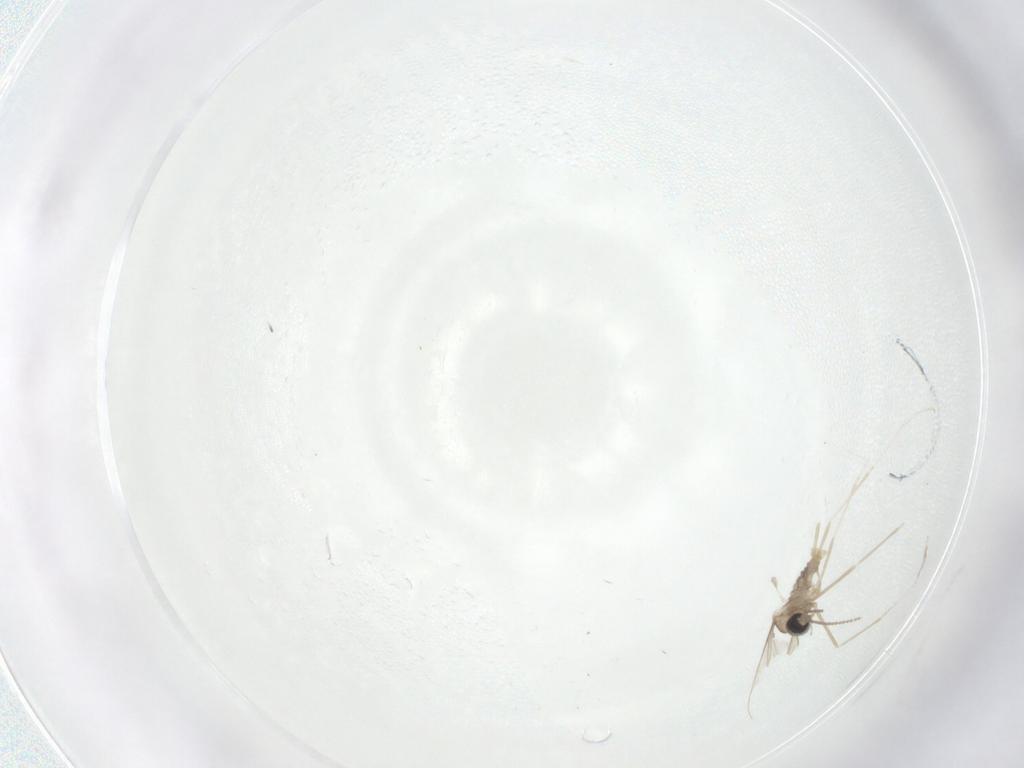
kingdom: Animalia
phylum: Arthropoda
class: Insecta
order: Diptera
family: Cecidomyiidae
